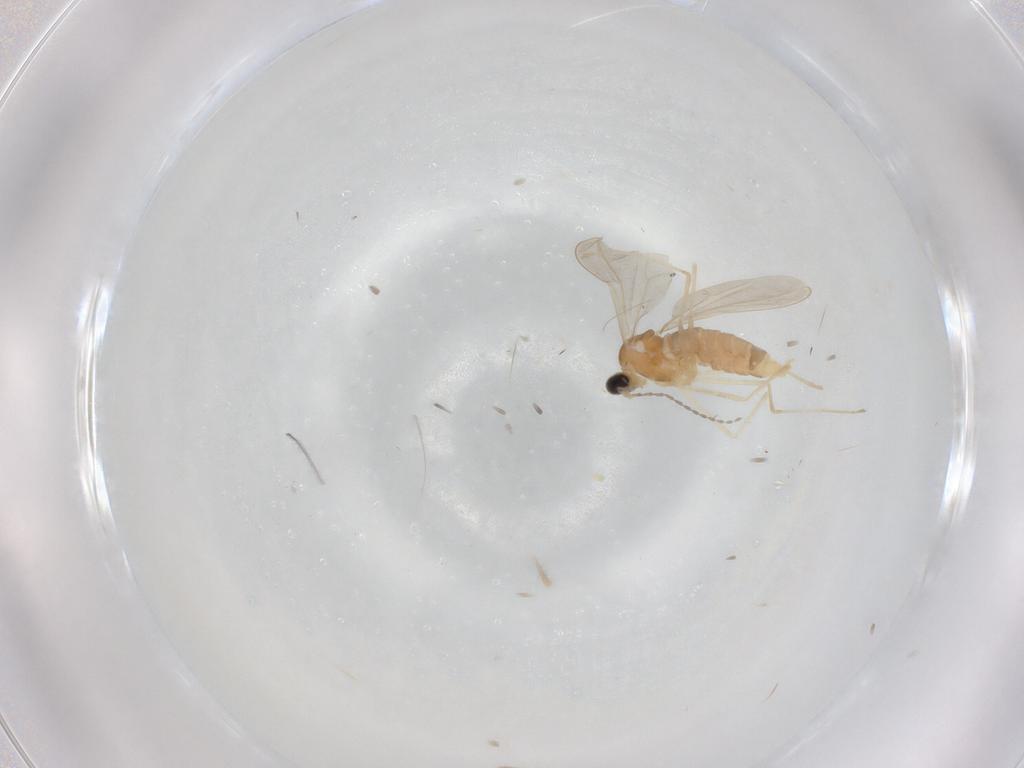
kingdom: Animalia
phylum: Arthropoda
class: Insecta
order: Diptera
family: Cecidomyiidae
